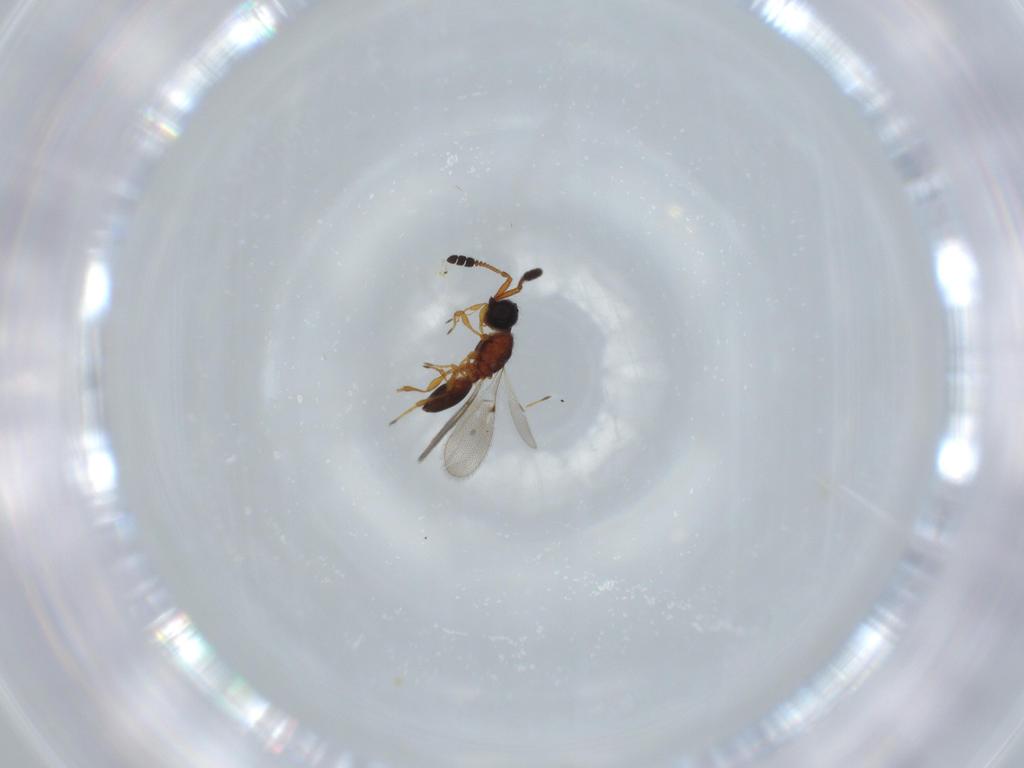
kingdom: Animalia
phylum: Arthropoda
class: Insecta
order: Hymenoptera
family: Diapriidae
